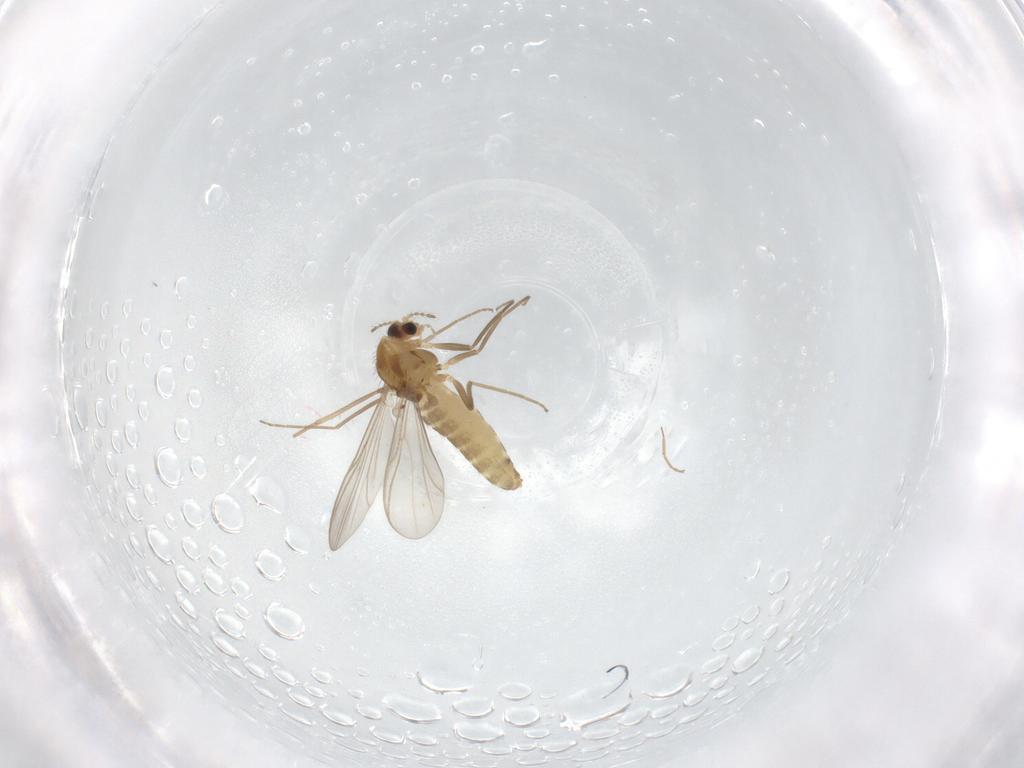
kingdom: Animalia
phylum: Arthropoda
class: Insecta
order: Diptera
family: Chironomidae
